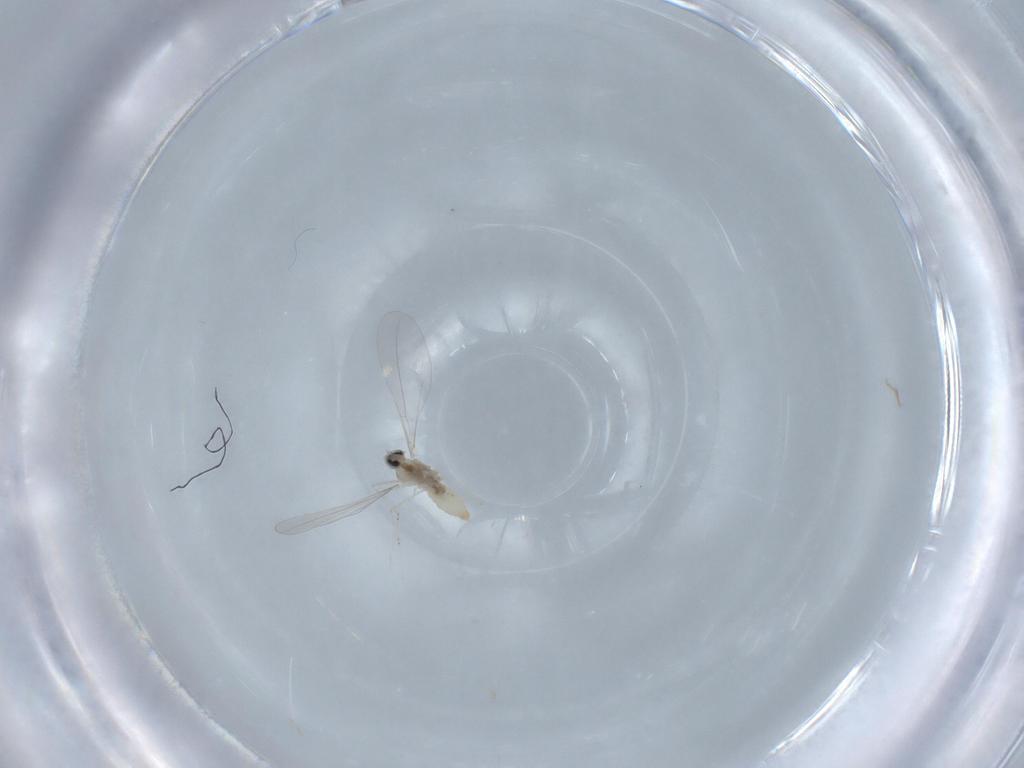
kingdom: Animalia
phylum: Arthropoda
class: Insecta
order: Diptera
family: Cecidomyiidae
